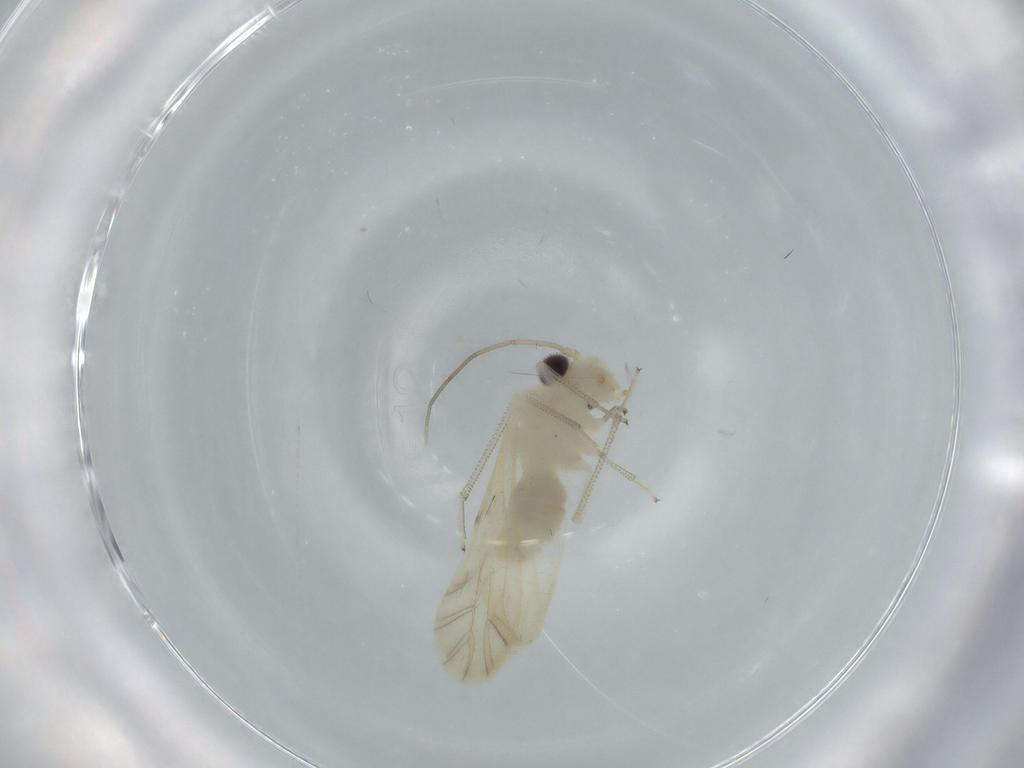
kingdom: Animalia
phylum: Arthropoda
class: Insecta
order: Psocodea
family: Caeciliusidae
